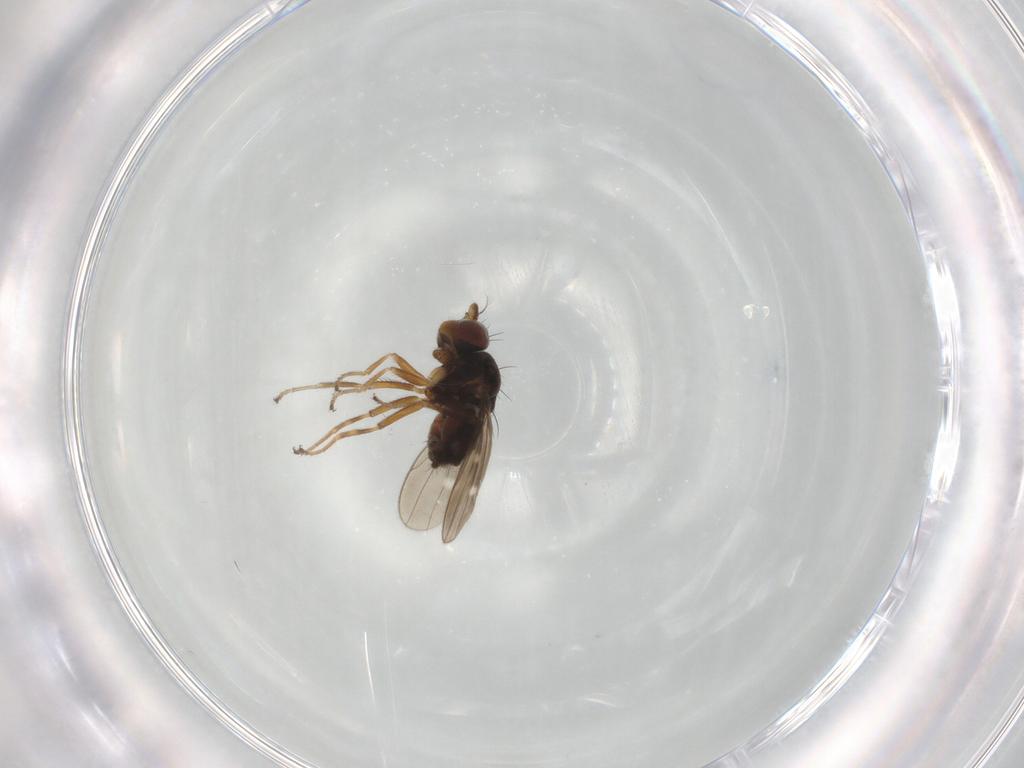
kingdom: Animalia
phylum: Arthropoda
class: Insecta
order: Diptera
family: Ephydridae
